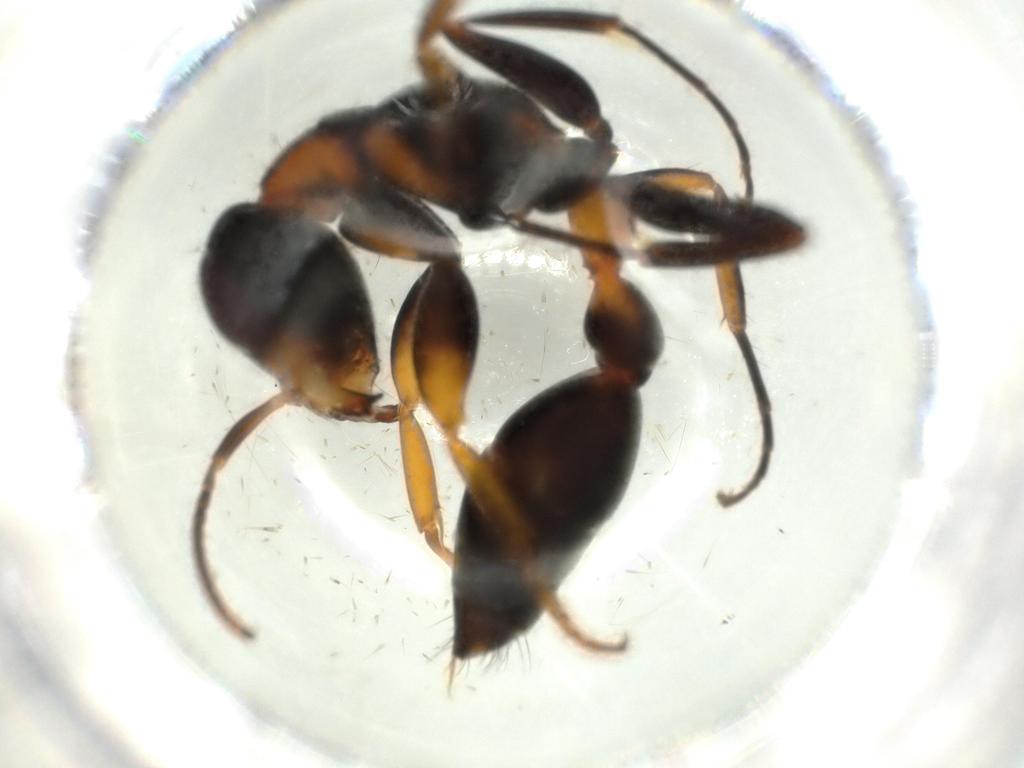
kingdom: Animalia
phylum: Arthropoda
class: Insecta
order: Hymenoptera
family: Formicidae
